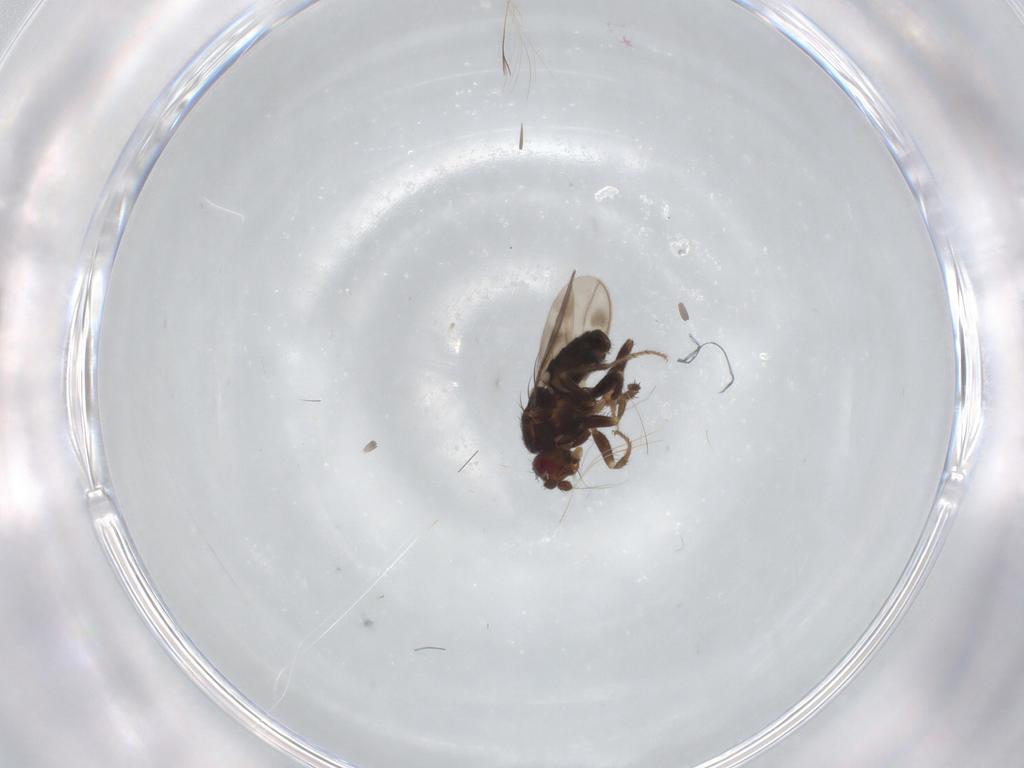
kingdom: Animalia
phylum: Arthropoda
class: Insecta
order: Diptera
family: Sphaeroceridae
